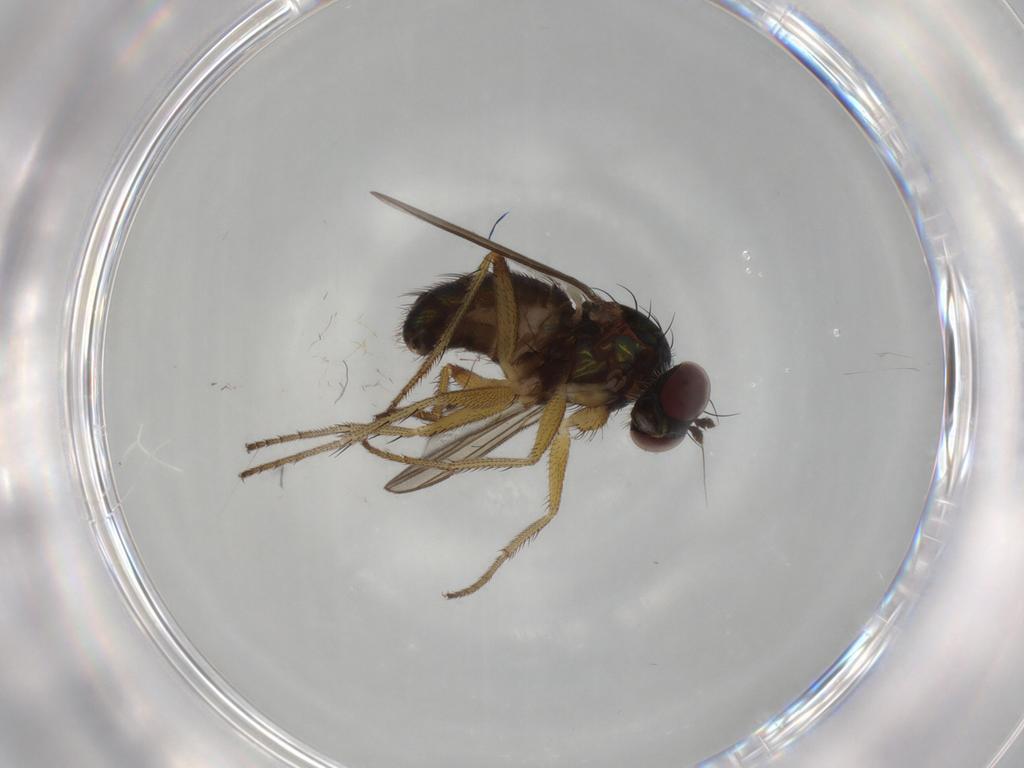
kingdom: Animalia
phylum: Arthropoda
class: Insecta
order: Diptera
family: Dolichopodidae
